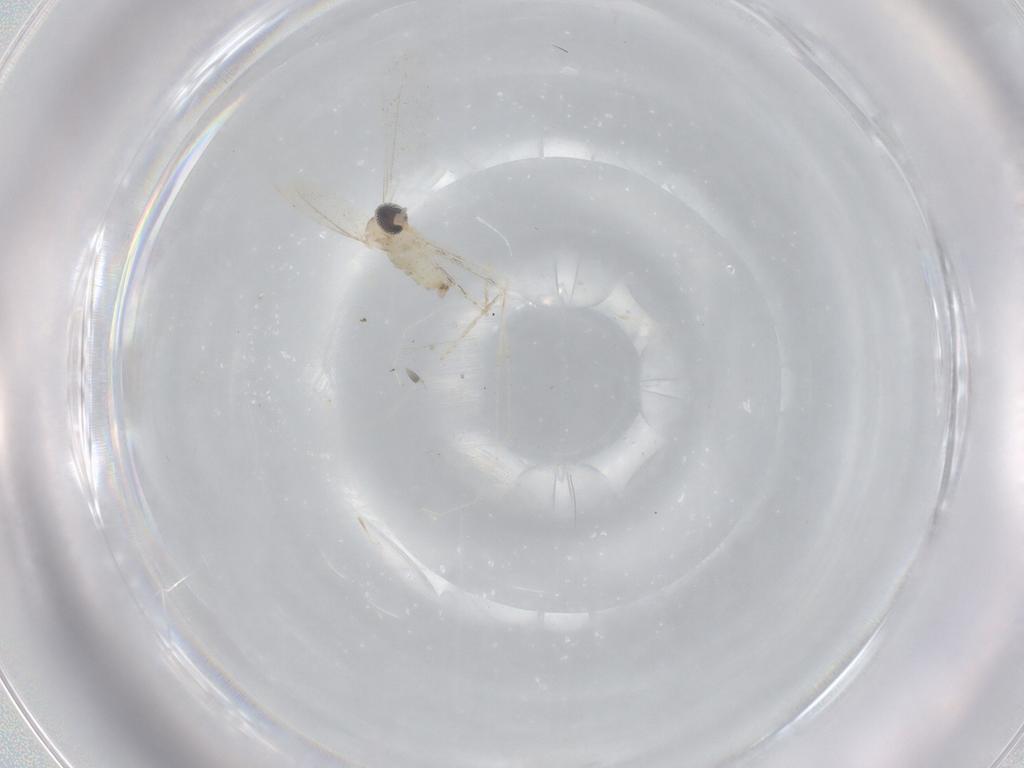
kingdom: Animalia
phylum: Arthropoda
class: Insecta
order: Diptera
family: Cecidomyiidae
